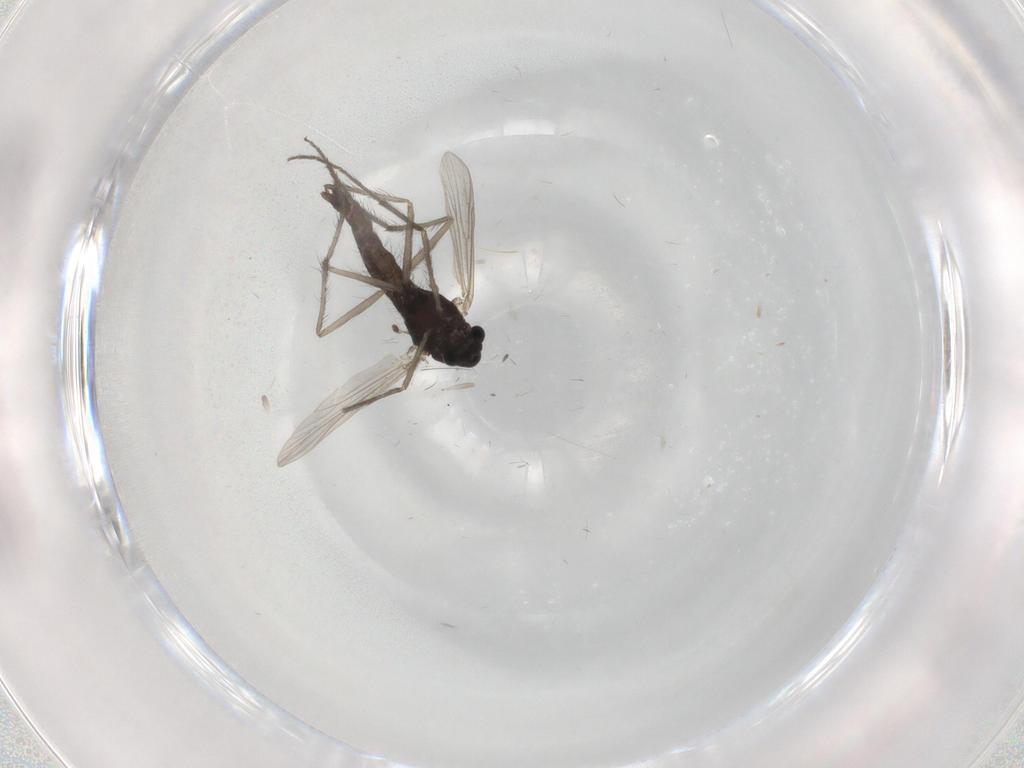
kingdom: Animalia
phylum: Arthropoda
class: Insecta
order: Diptera
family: Chironomidae
